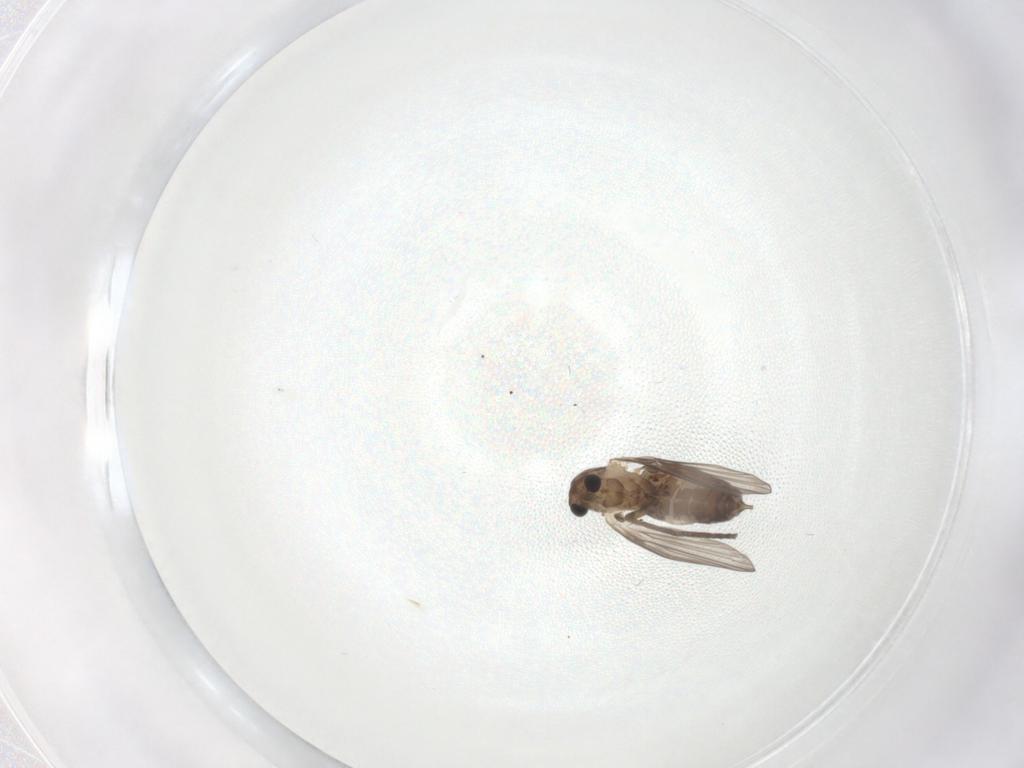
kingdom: Animalia
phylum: Arthropoda
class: Insecta
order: Diptera
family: Psychodidae
